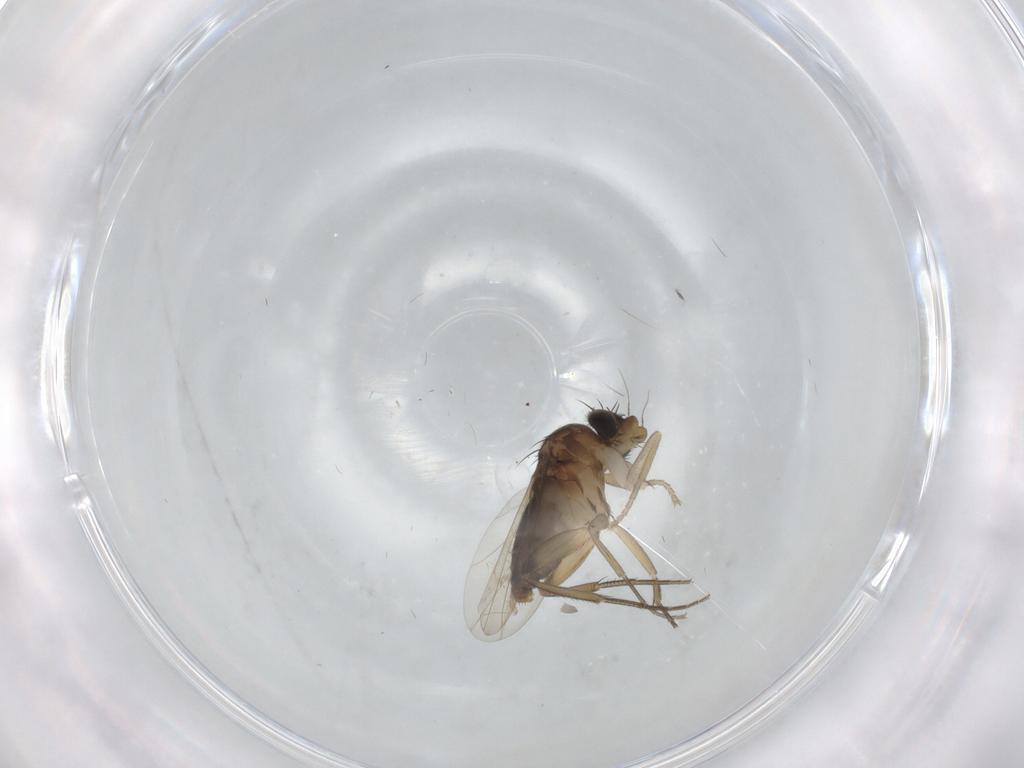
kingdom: Animalia
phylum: Arthropoda
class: Insecta
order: Diptera
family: Phoridae
